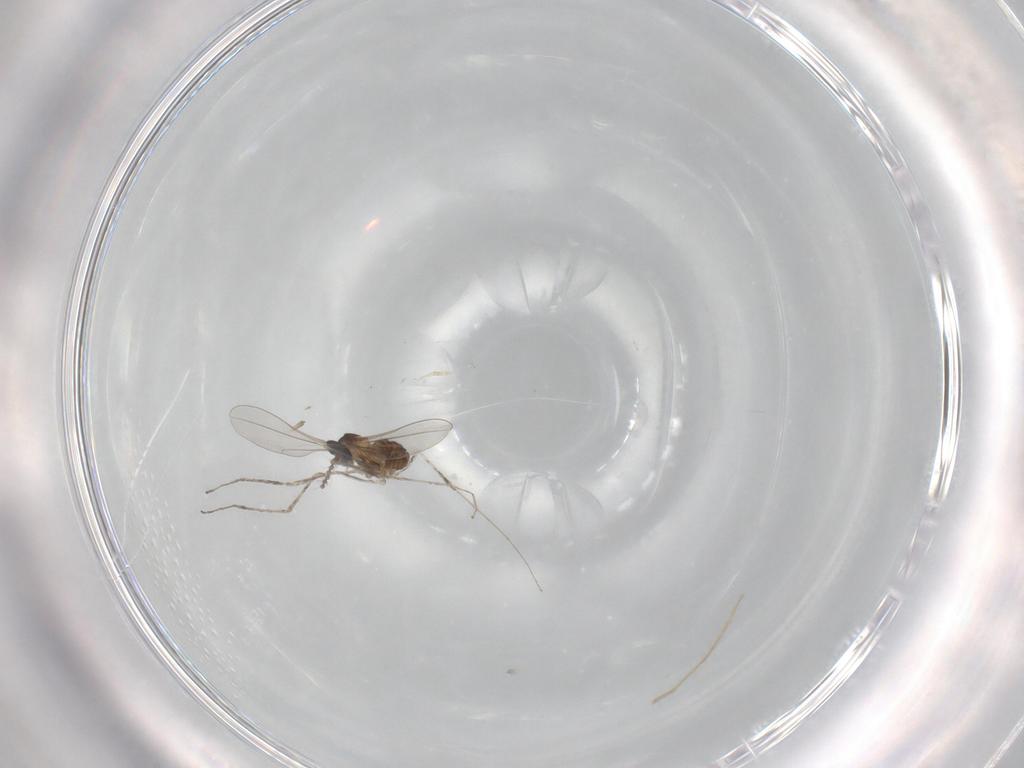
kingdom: Animalia
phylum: Arthropoda
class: Insecta
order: Diptera
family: Cecidomyiidae
